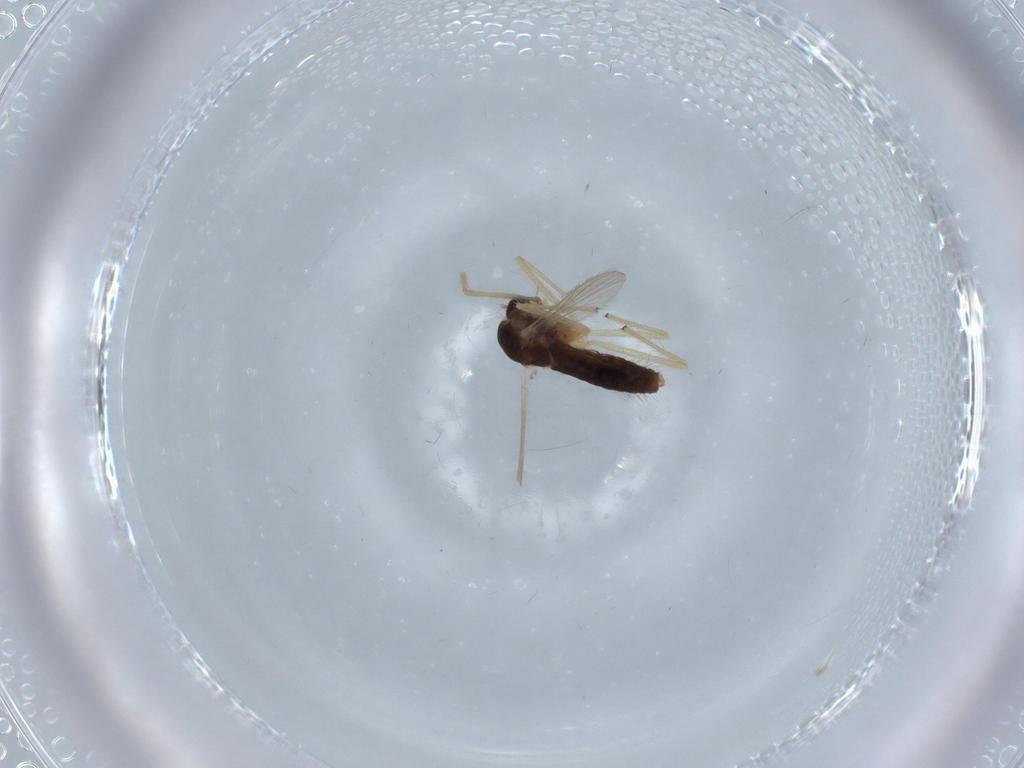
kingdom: Animalia
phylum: Arthropoda
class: Insecta
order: Diptera
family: Chironomidae
